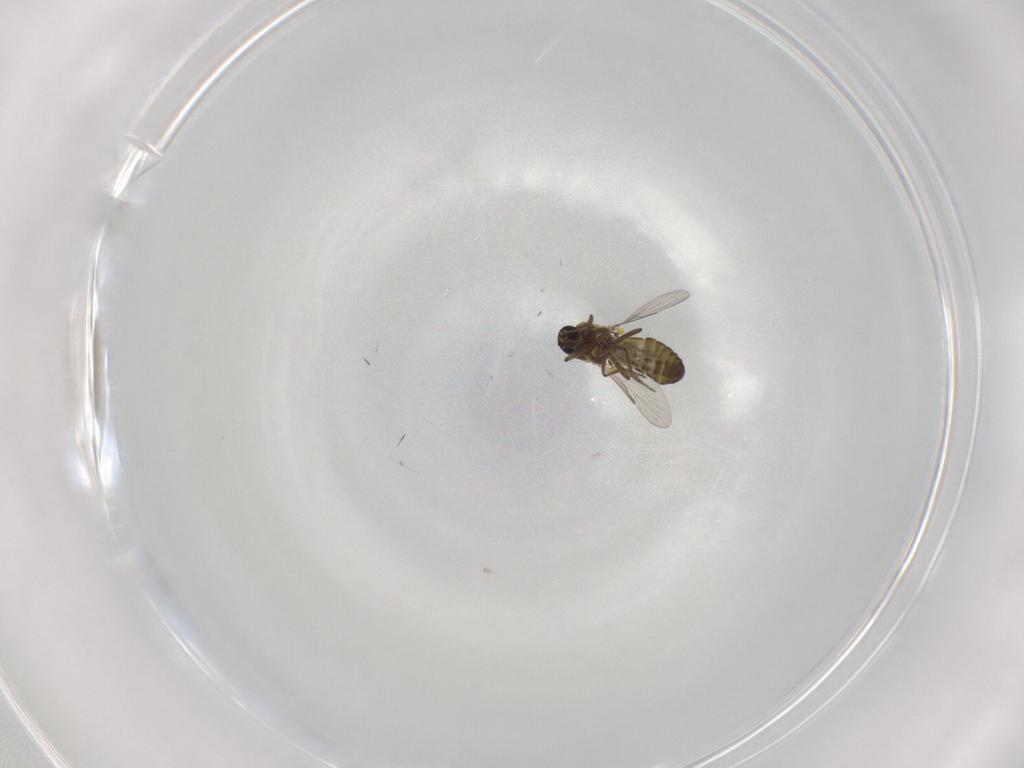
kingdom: Animalia
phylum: Arthropoda
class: Insecta
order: Diptera
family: Ceratopogonidae
